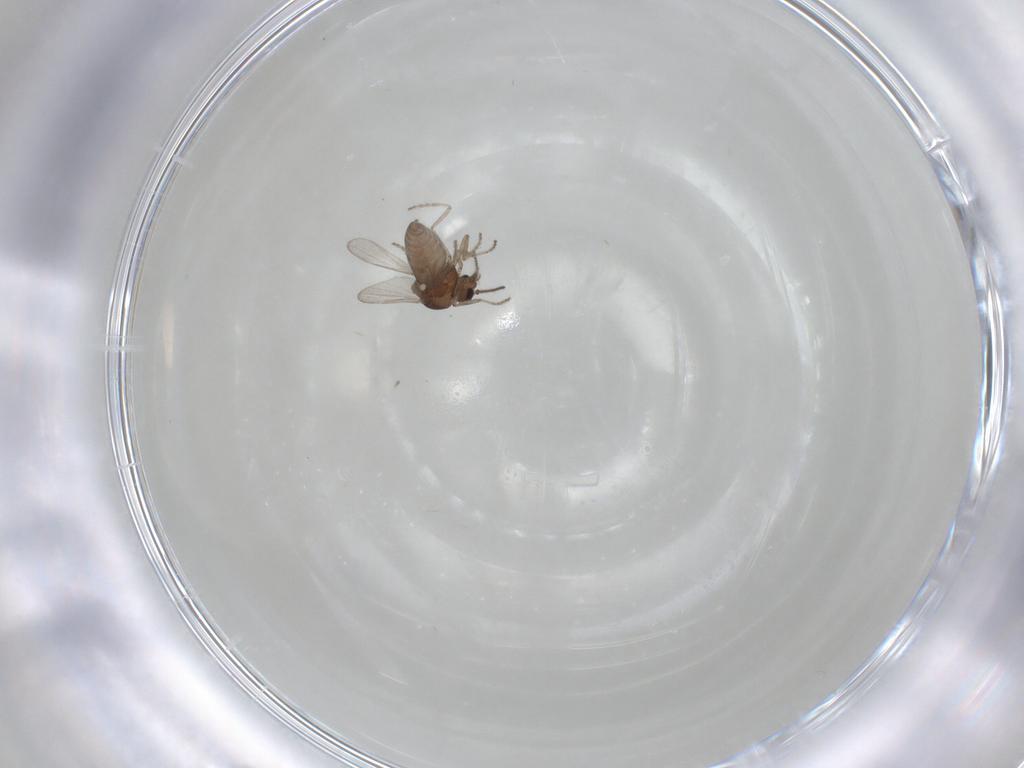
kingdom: Animalia
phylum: Arthropoda
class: Insecta
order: Diptera
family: Ceratopogonidae
